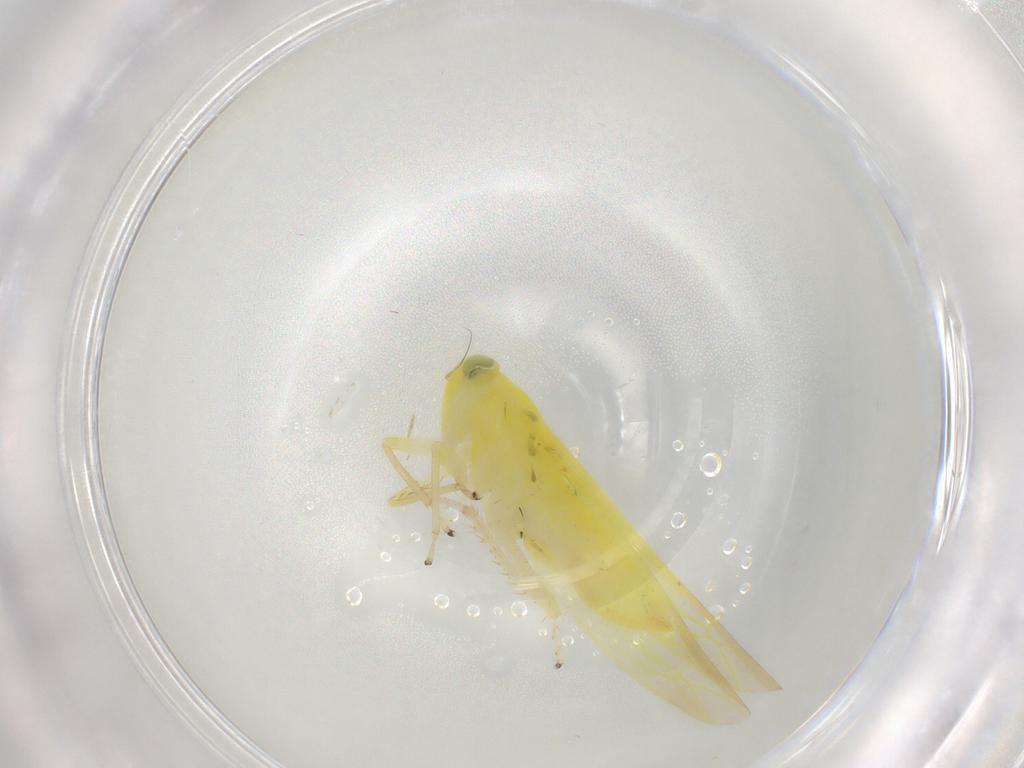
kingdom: Animalia
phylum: Arthropoda
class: Insecta
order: Hemiptera
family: Cicadellidae
